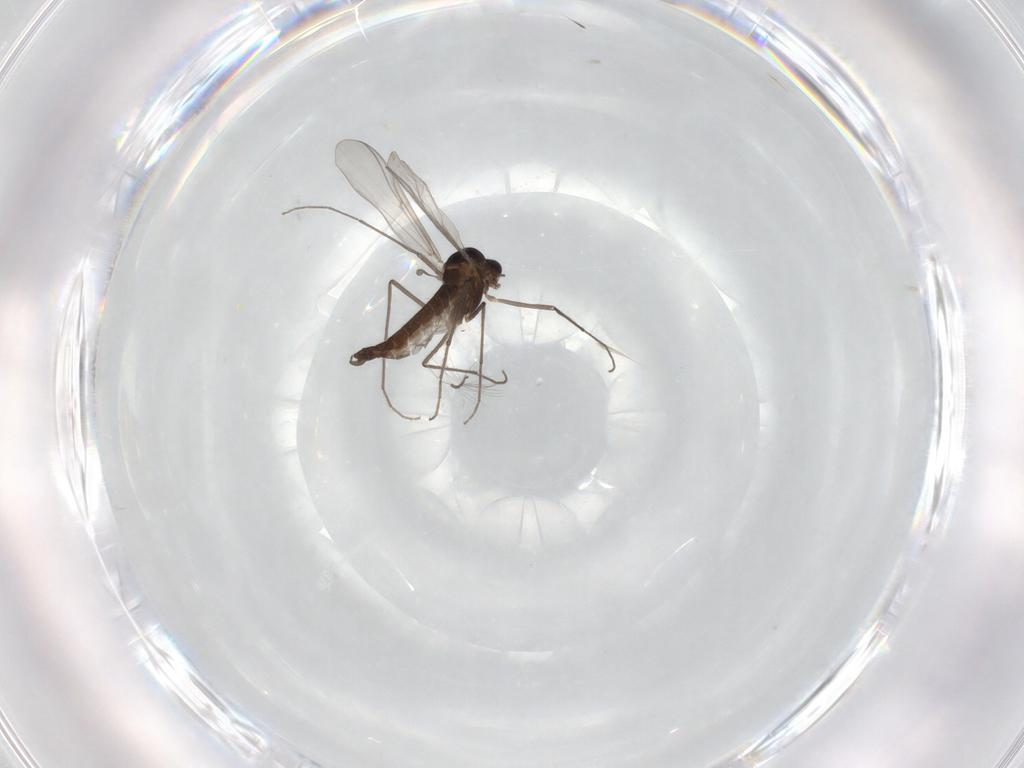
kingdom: Animalia
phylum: Arthropoda
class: Insecta
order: Diptera
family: Chironomidae
